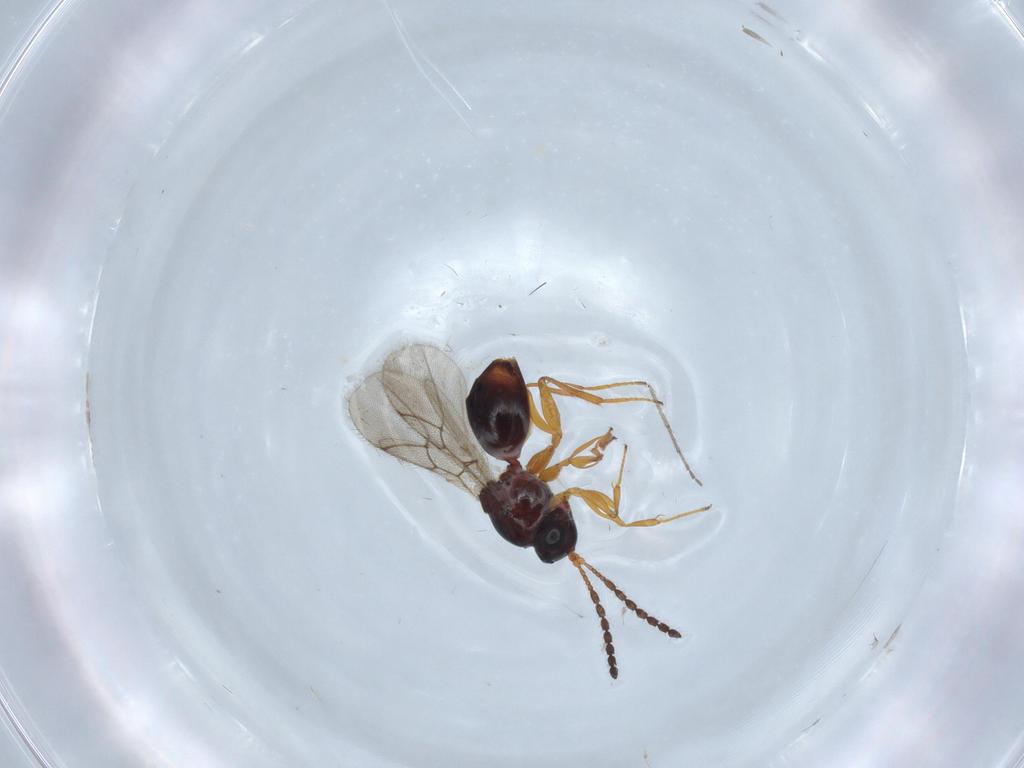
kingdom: Animalia
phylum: Arthropoda
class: Insecta
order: Hymenoptera
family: Figitidae
